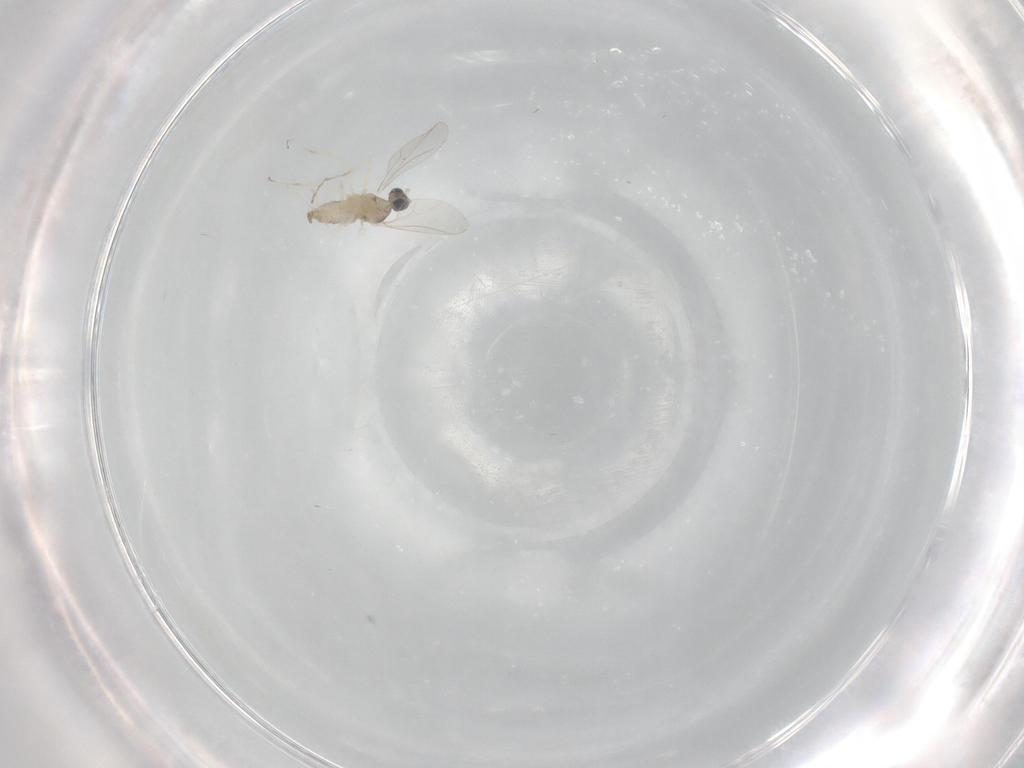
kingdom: Animalia
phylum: Arthropoda
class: Insecta
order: Diptera
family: Cecidomyiidae
